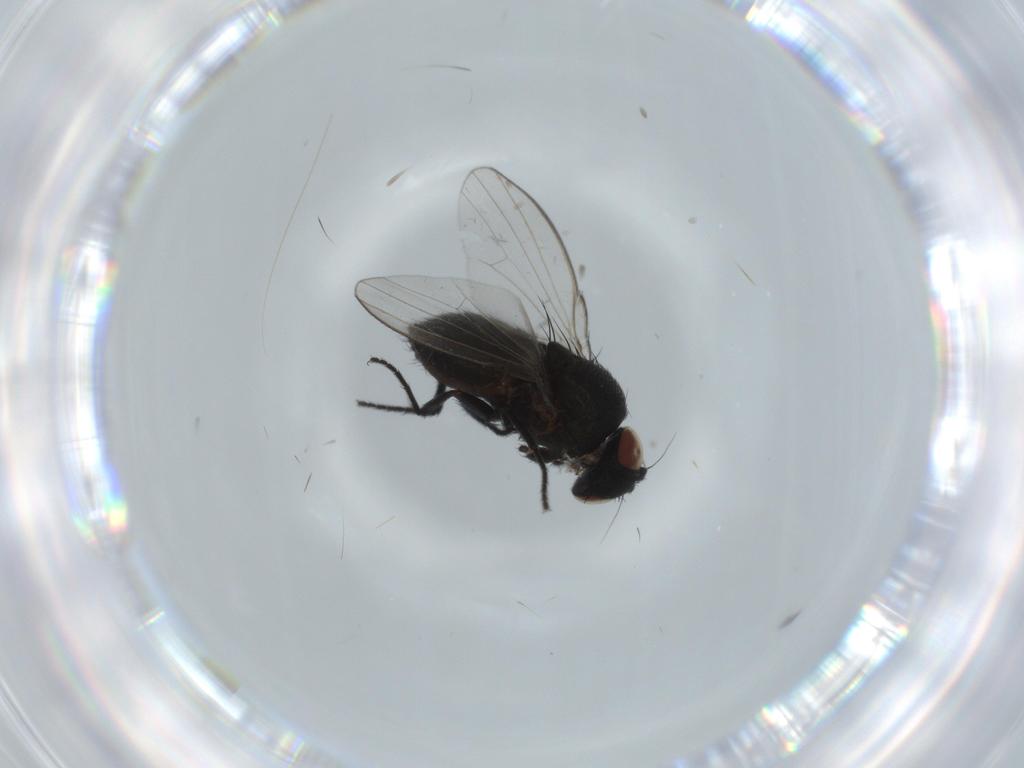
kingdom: Animalia
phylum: Arthropoda
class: Insecta
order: Diptera
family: Milichiidae
